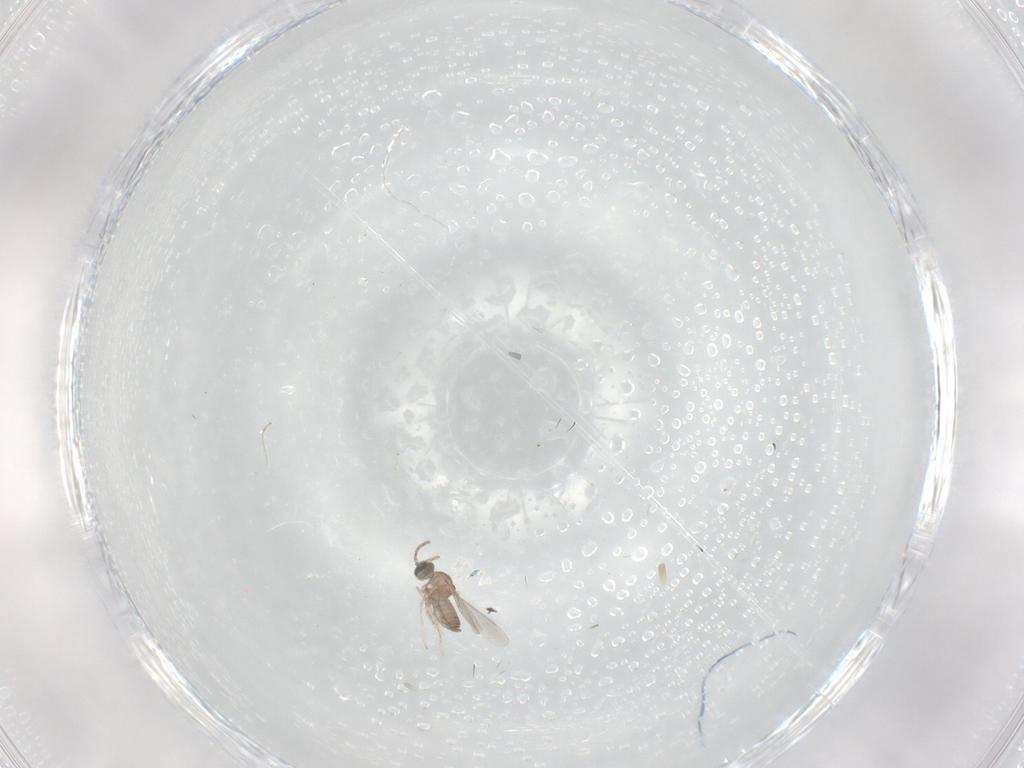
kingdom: Animalia
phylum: Arthropoda
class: Insecta
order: Diptera
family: Cecidomyiidae
